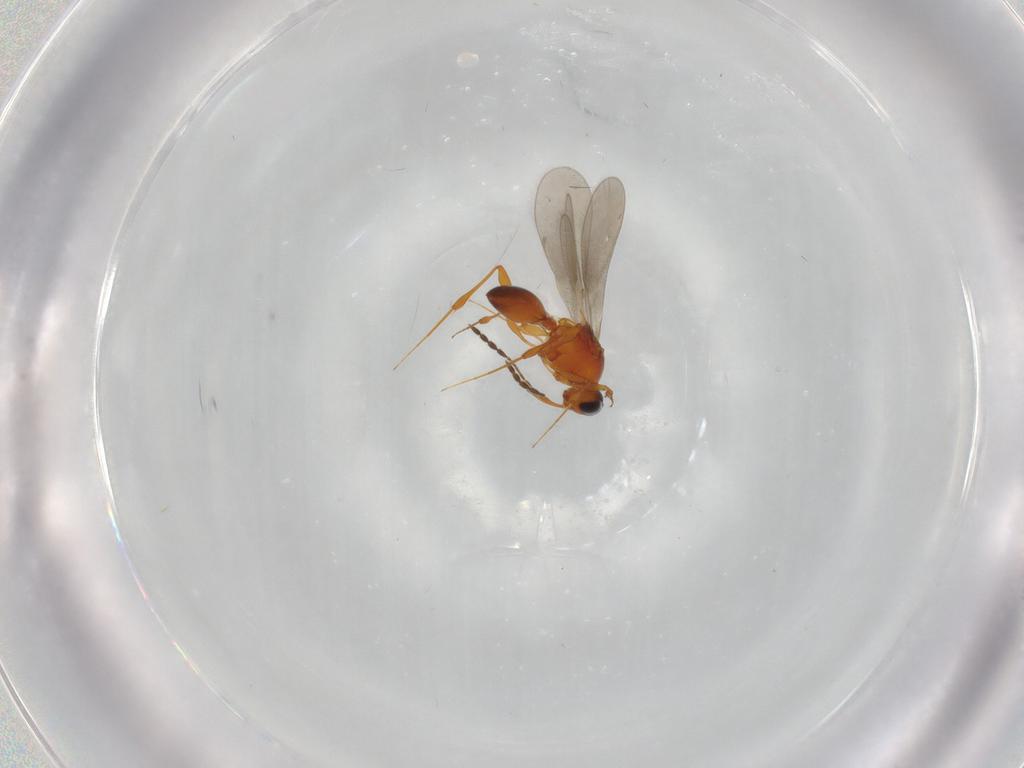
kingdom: Animalia
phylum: Arthropoda
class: Insecta
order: Hymenoptera
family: Platygastridae
